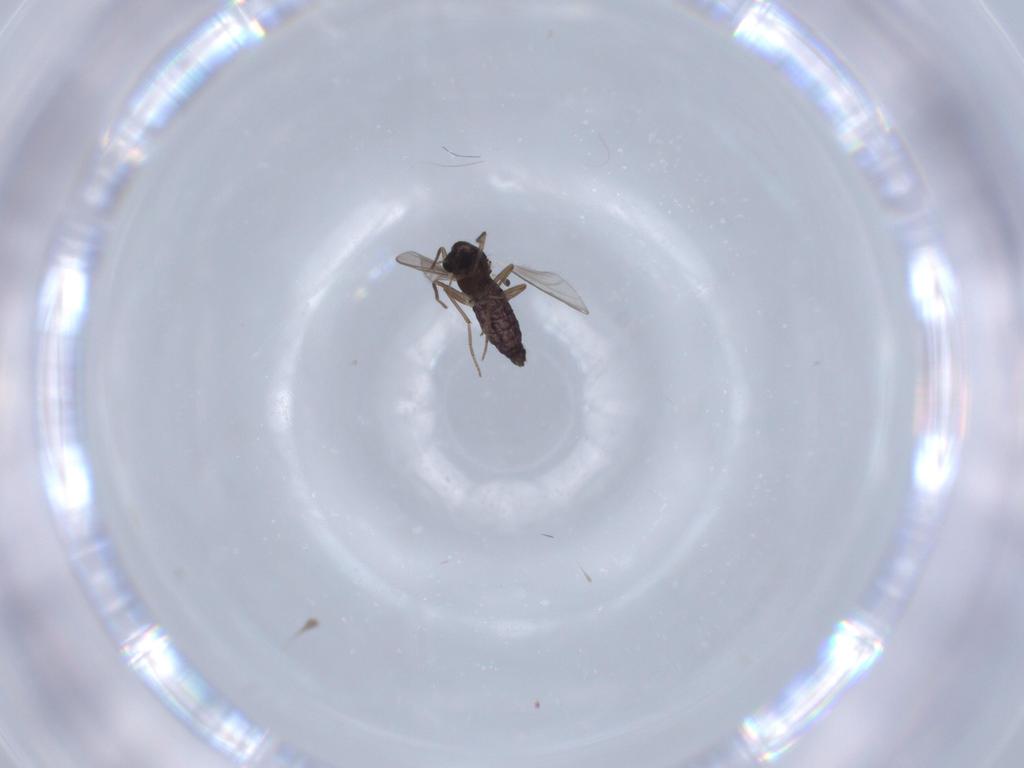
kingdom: Animalia
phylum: Arthropoda
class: Insecta
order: Diptera
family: Chironomidae
